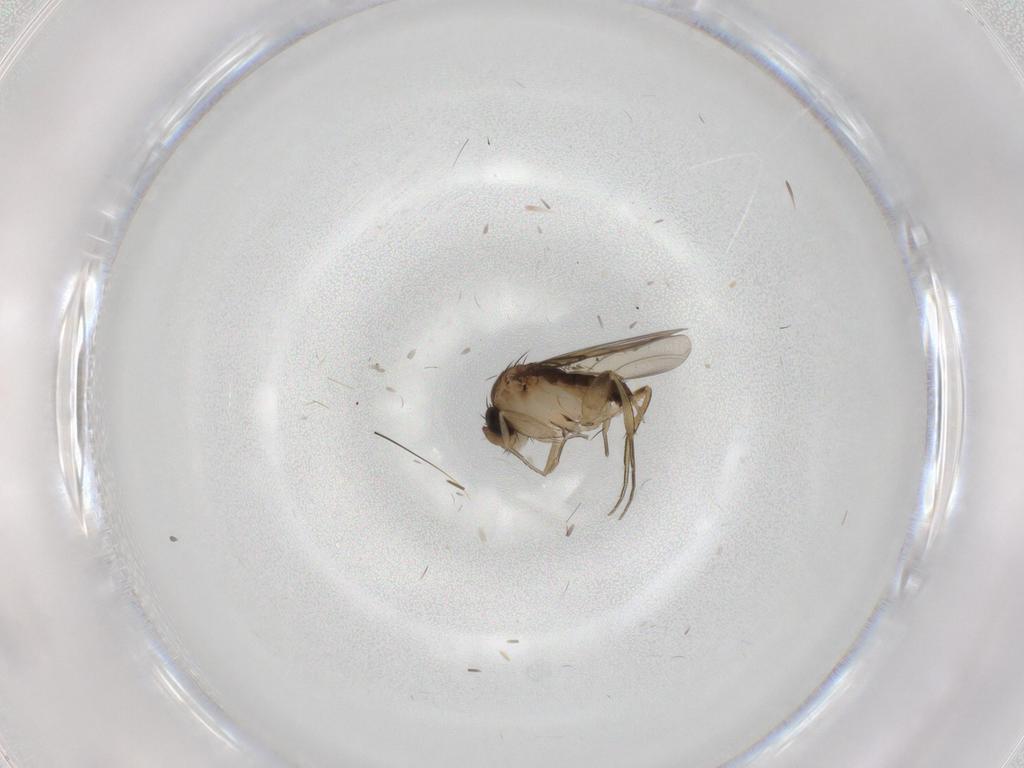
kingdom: Animalia
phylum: Arthropoda
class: Insecta
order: Diptera
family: Phoridae
